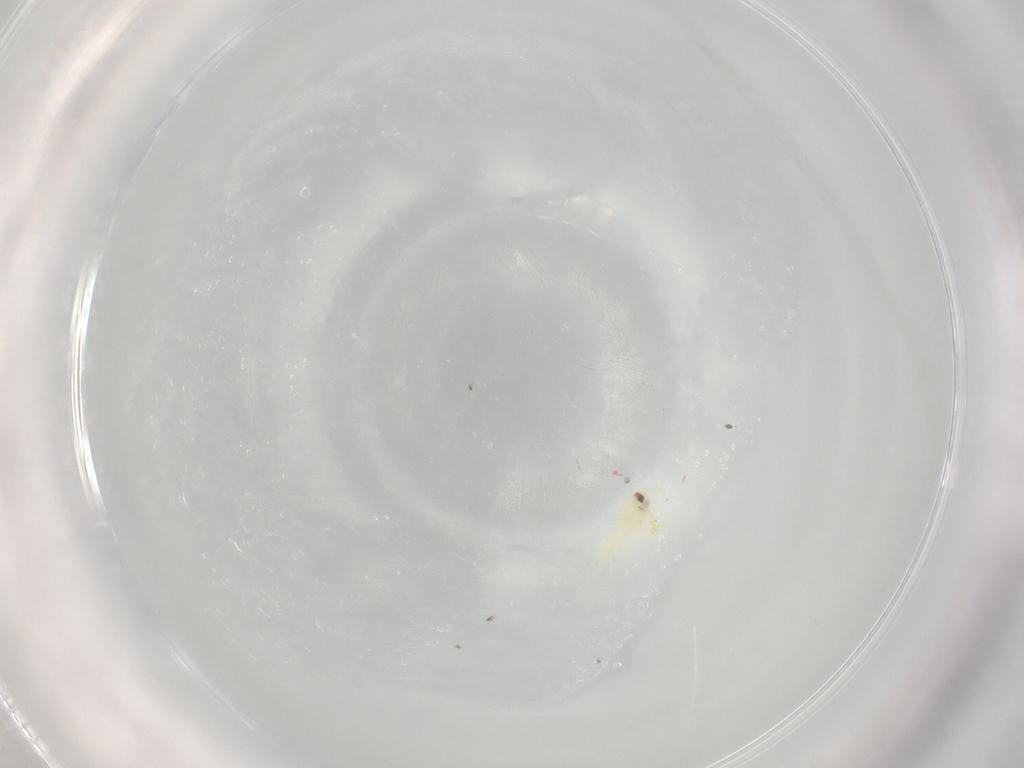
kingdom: Animalia
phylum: Arthropoda
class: Insecta
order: Hemiptera
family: Aleyrodidae
